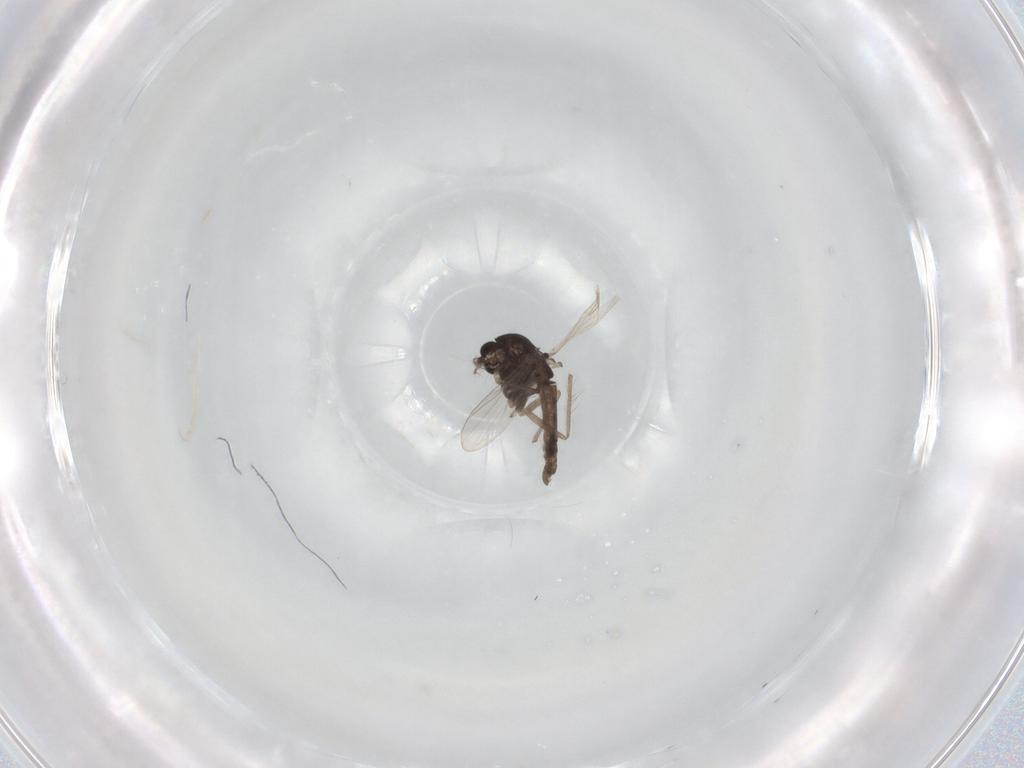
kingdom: Animalia
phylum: Arthropoda
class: Insecta
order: Diptera
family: Chironomidae
